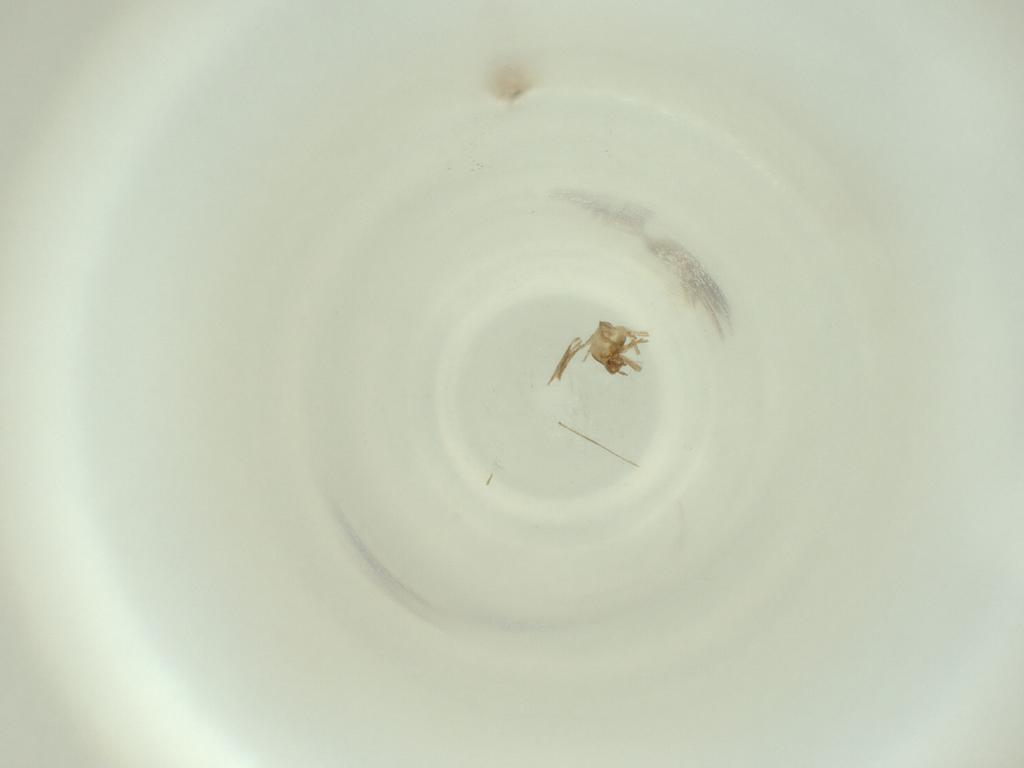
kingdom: Animalia
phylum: Arthropoda
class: Insecta
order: Diptera
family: Cecidomyiidae
